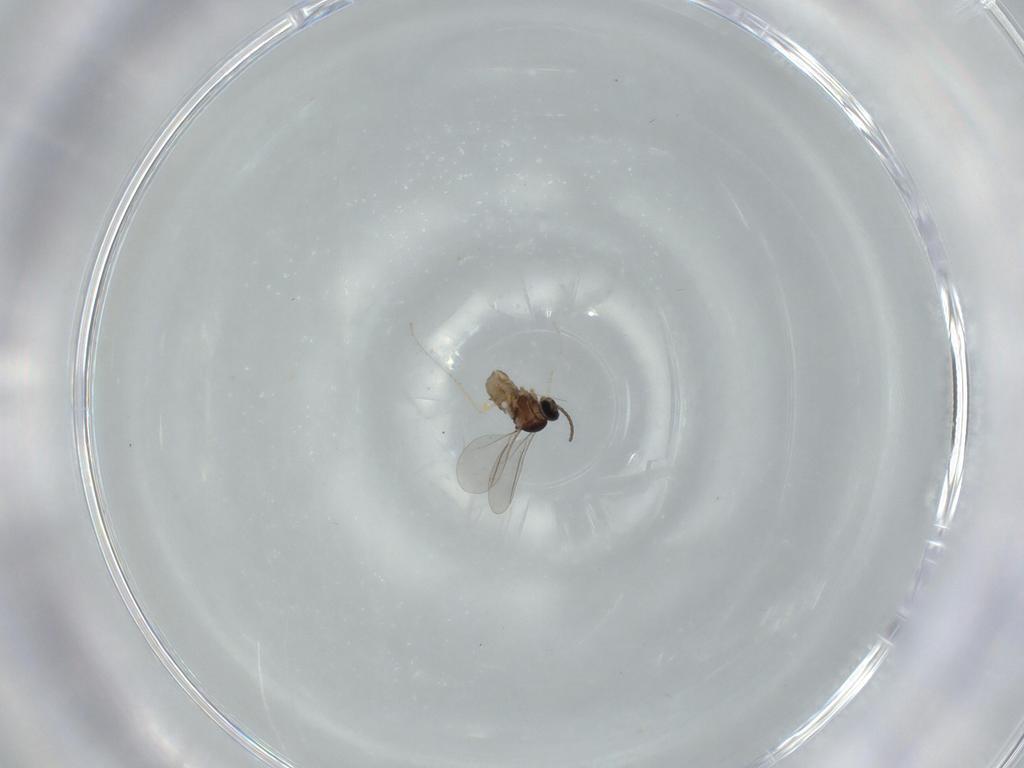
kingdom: Animalia
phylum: Arthropoda
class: Insecta
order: Diptera
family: Cecidomyiidae
